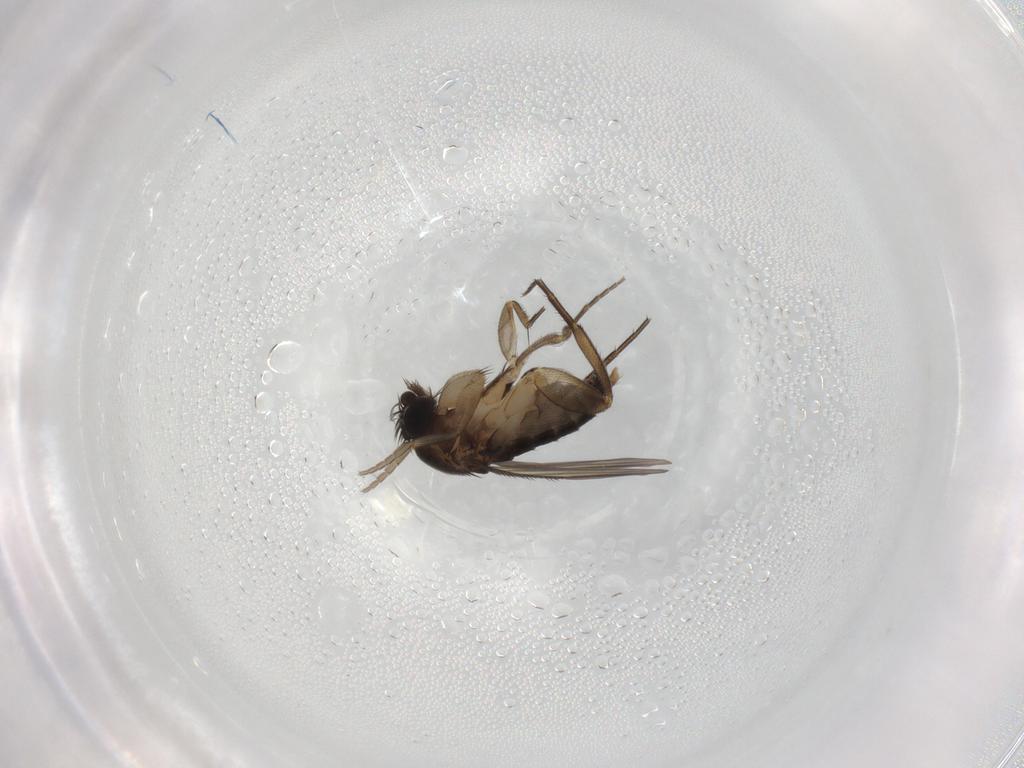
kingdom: Animalia
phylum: Arthropoda
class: Insecta
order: Diptera
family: Phoridae
